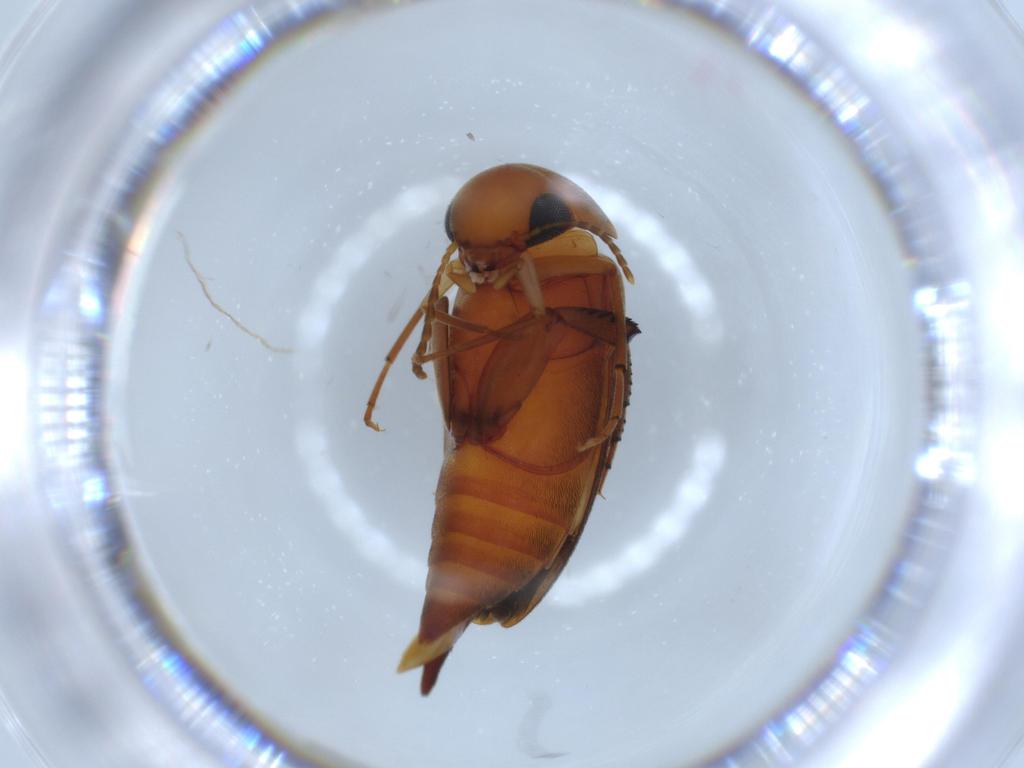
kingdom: Animalia
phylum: Arthropoda
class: Insecta
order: Coleoptera
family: Mordellidae
